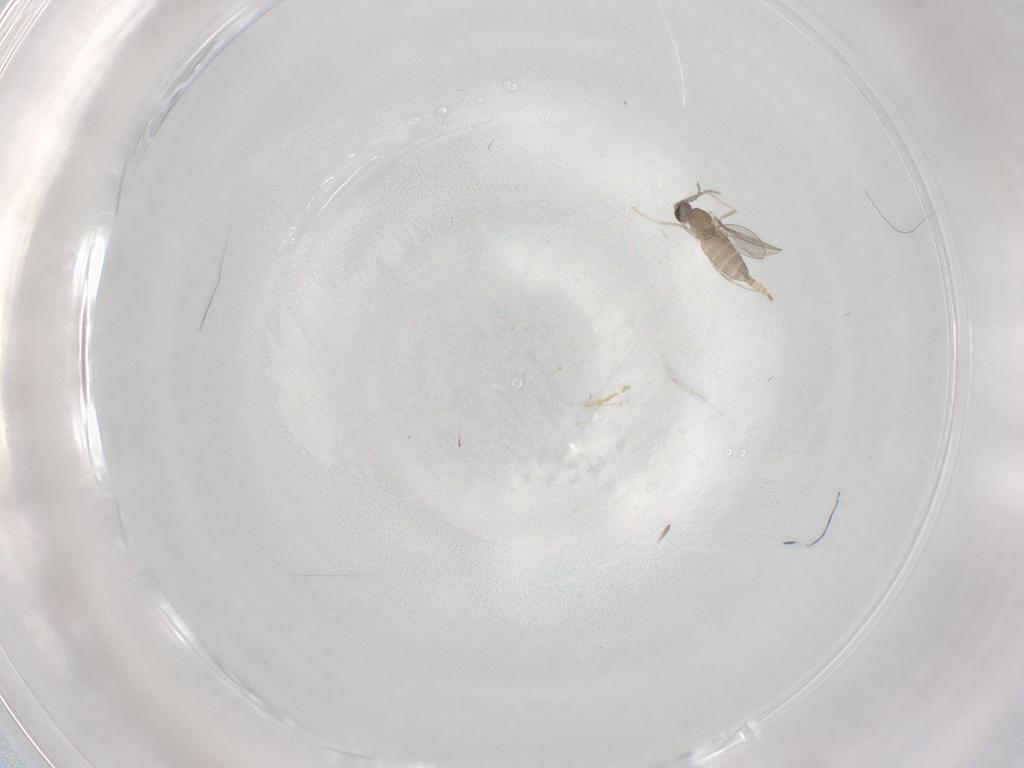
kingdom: Animalia
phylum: Arthropoda
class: Insecta
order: Diptera
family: Cecidomyiidae
